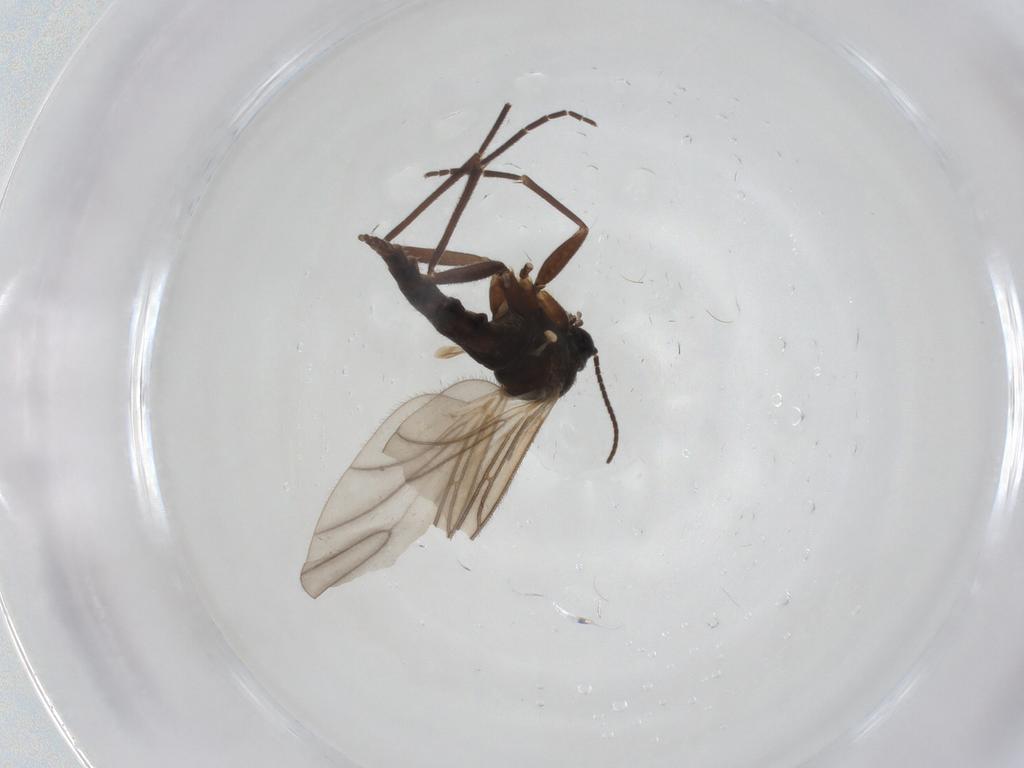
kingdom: Animalia
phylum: Arthropoda
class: Insecta
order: Diptera
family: Sciaridae
